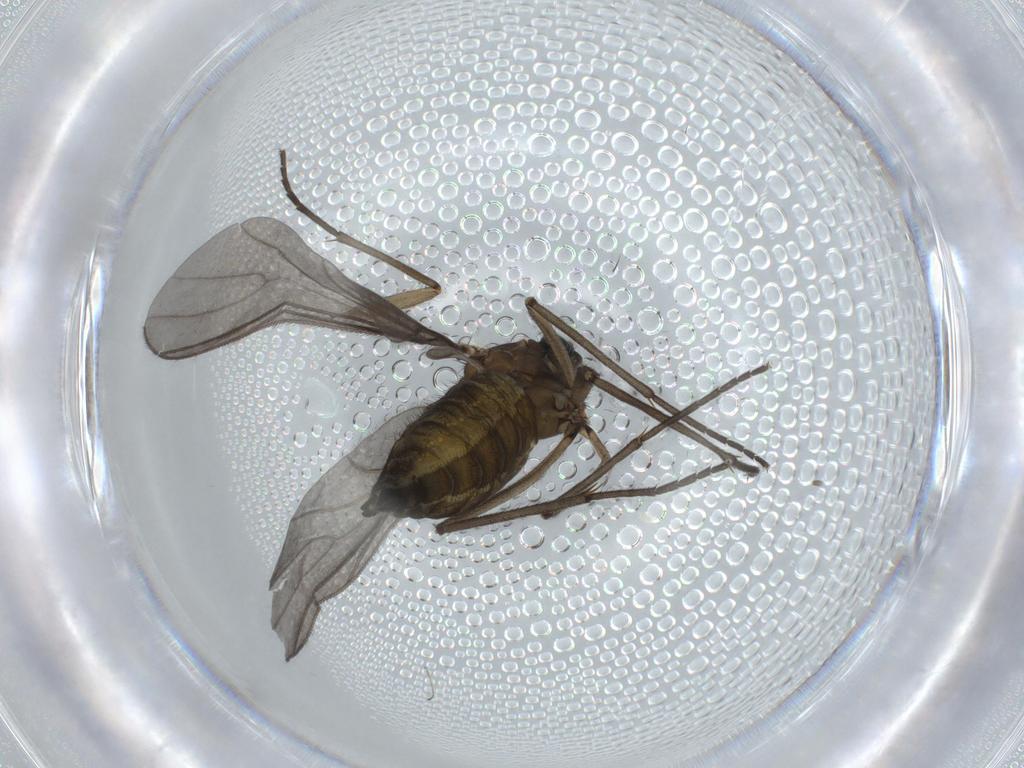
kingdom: Animalia
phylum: Arthropoda
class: Insecta
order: Diptera
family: Sciaridae
